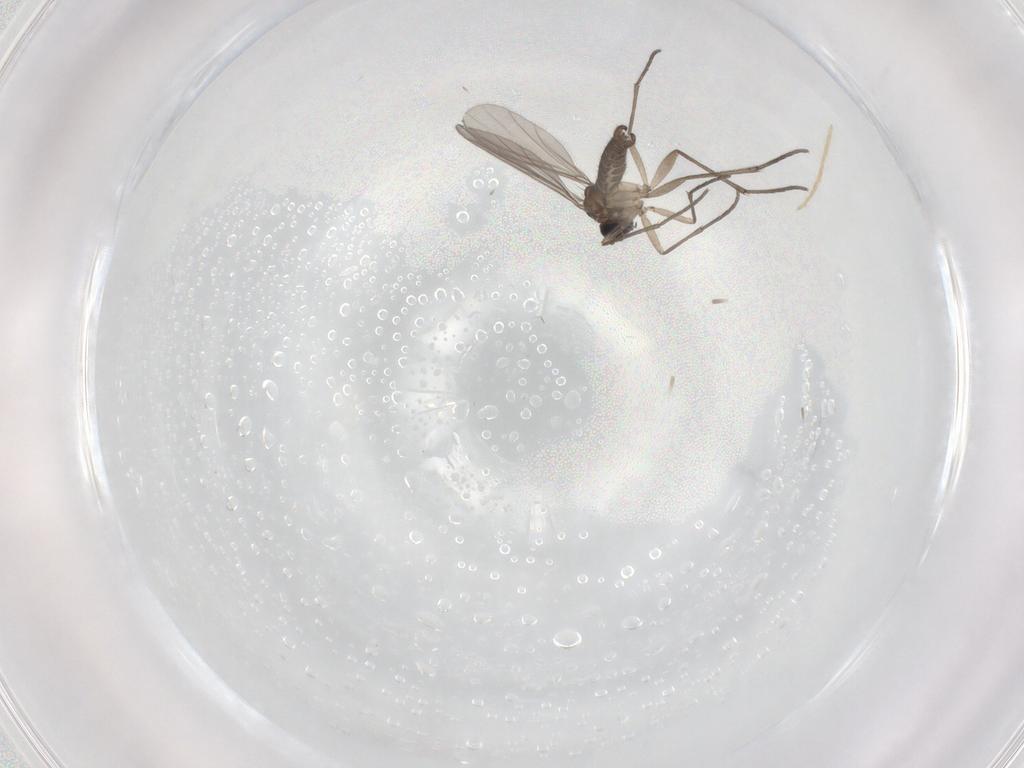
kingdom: Animalia
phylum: Arthropoda
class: Insecta
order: Diptera
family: Sciaridae
